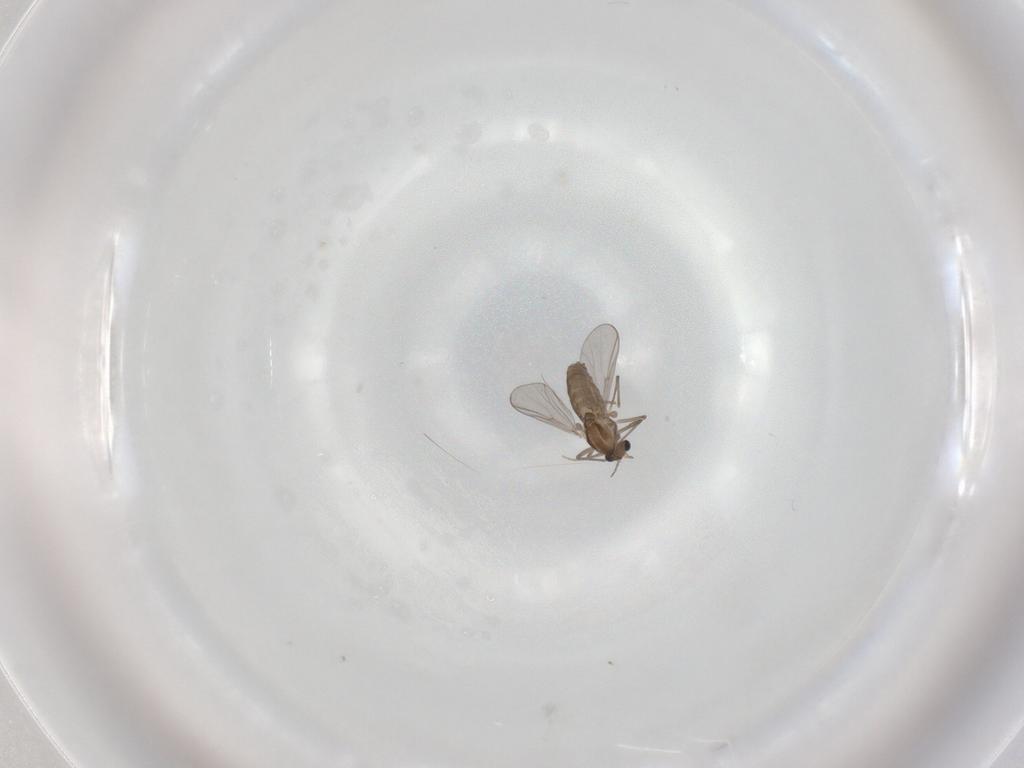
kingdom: Animalia
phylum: Arthropoda
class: Insecta
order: Diptera
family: Chironomidae
